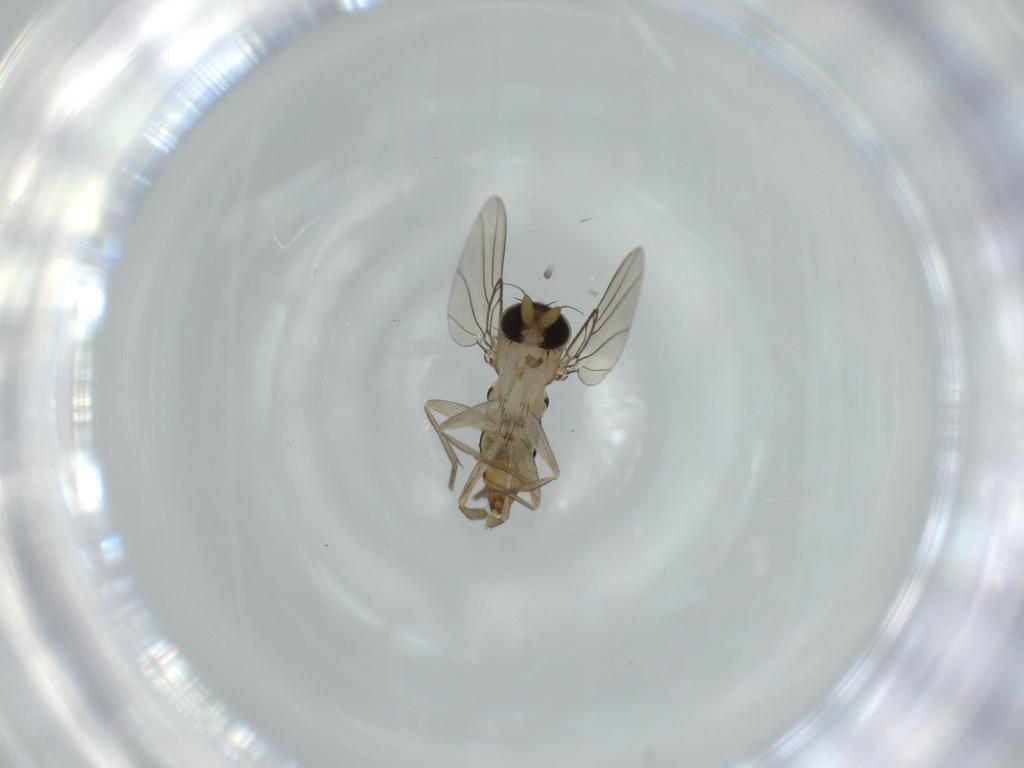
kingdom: Animalia
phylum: Arthropoda
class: Insecta
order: Diptera
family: Phoridae
